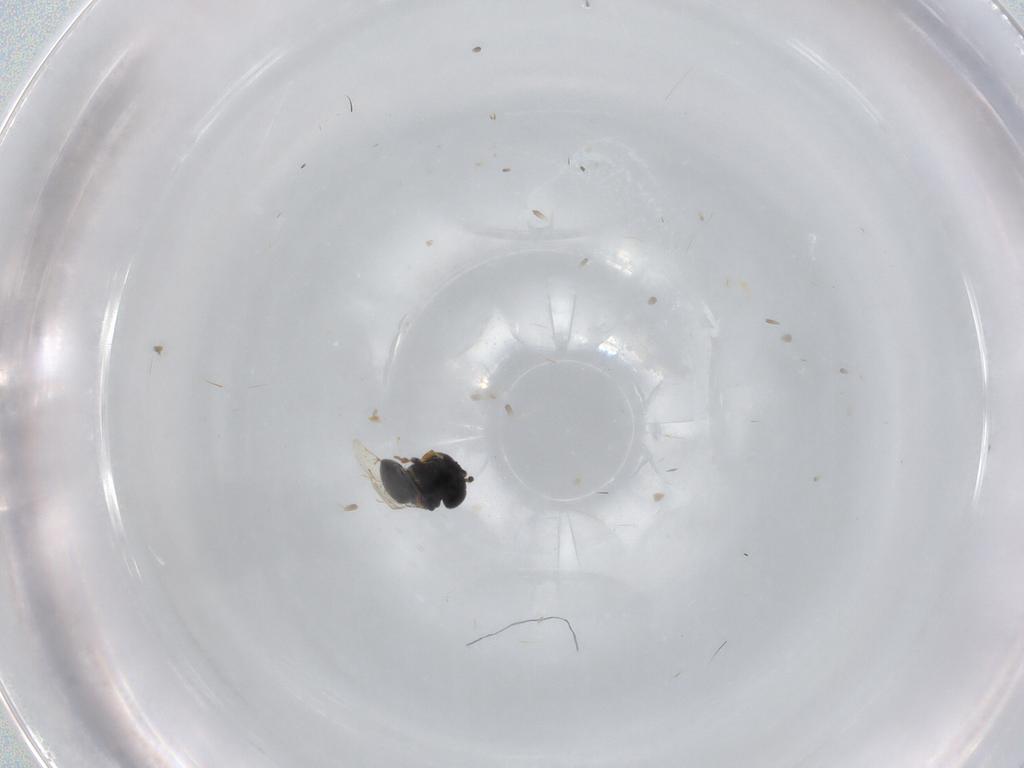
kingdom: Animalia
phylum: Arthropoda
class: Insecta
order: Hymenoptera
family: Scelionidae
